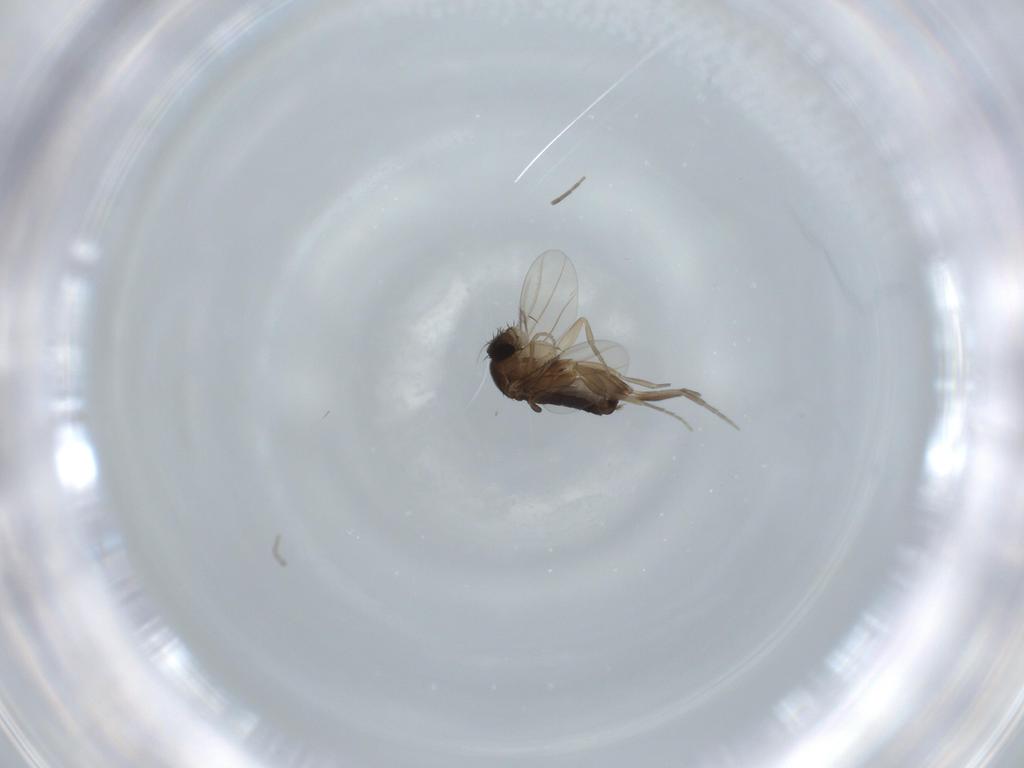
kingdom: Animalia
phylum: Arthropoda
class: Insecta
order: Diptera
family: Phoridae
